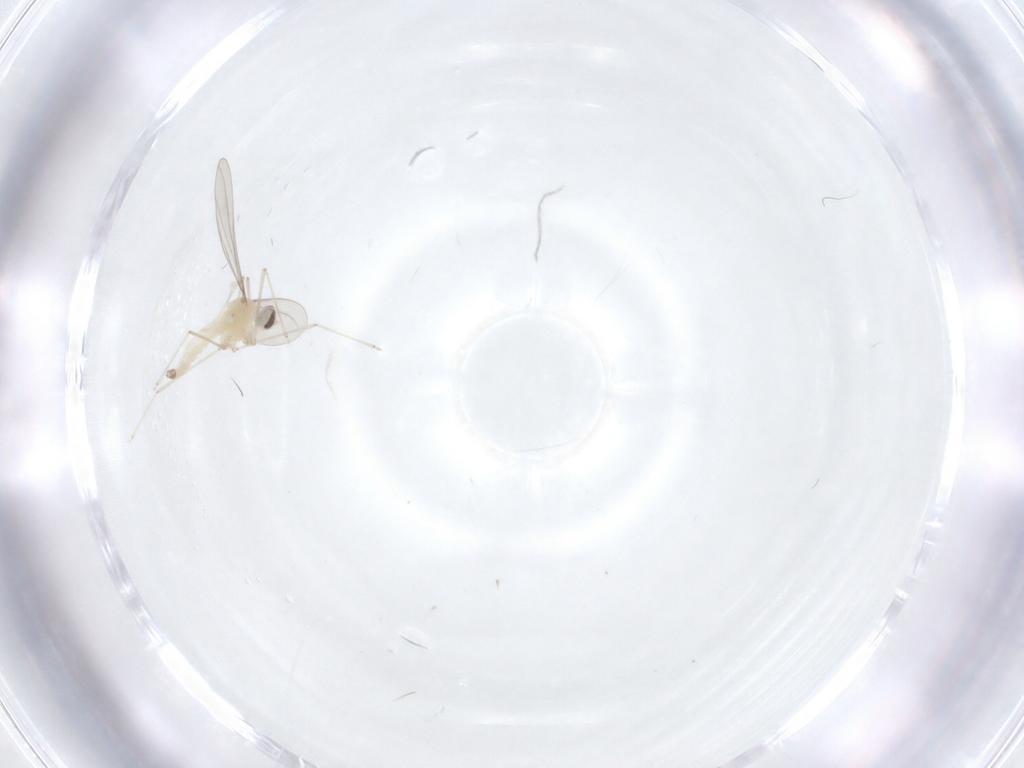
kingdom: Animalia
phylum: Arthropoda
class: Insecta
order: Diptera
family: Cecidomyiidae
